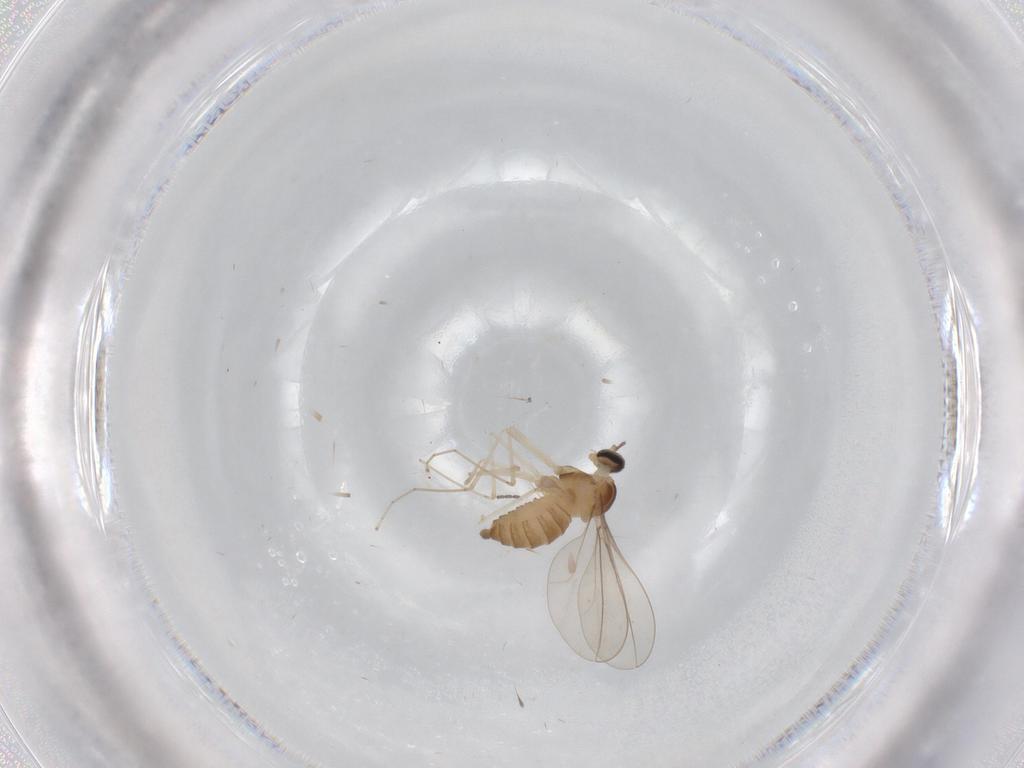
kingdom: Animalia
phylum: Arthropoda
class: Insecta
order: Diptera
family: Cecidomyiidae
